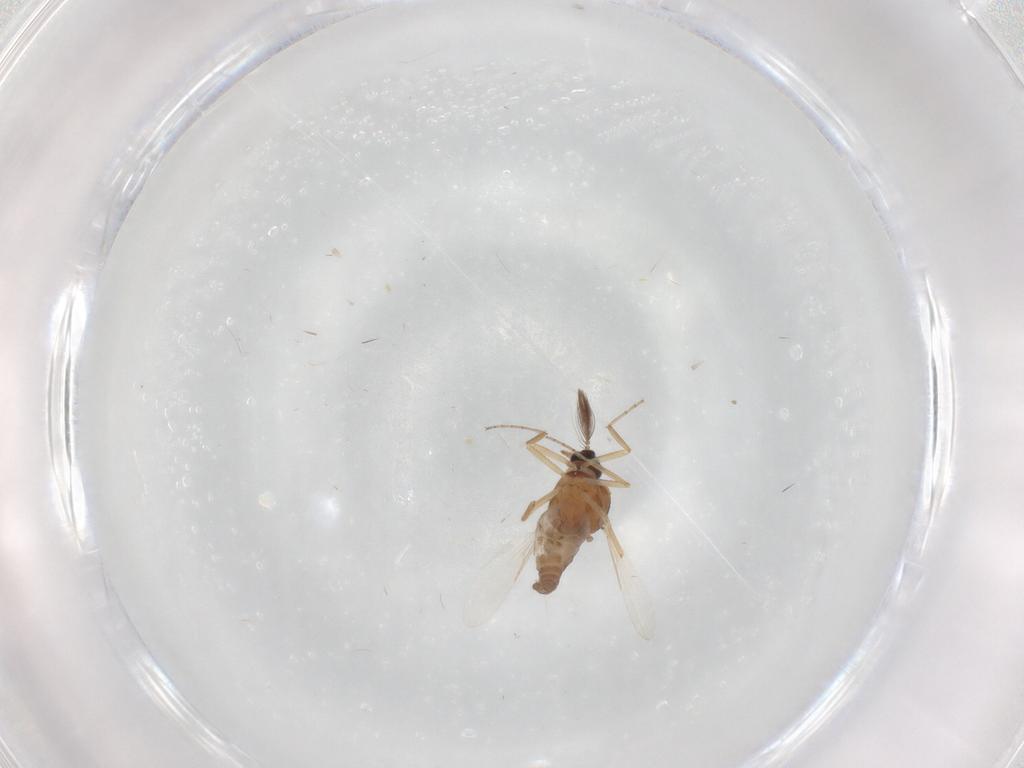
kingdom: Animalia
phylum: Arthropoda
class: Insecta
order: Diptera
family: Ceratopogonidae
